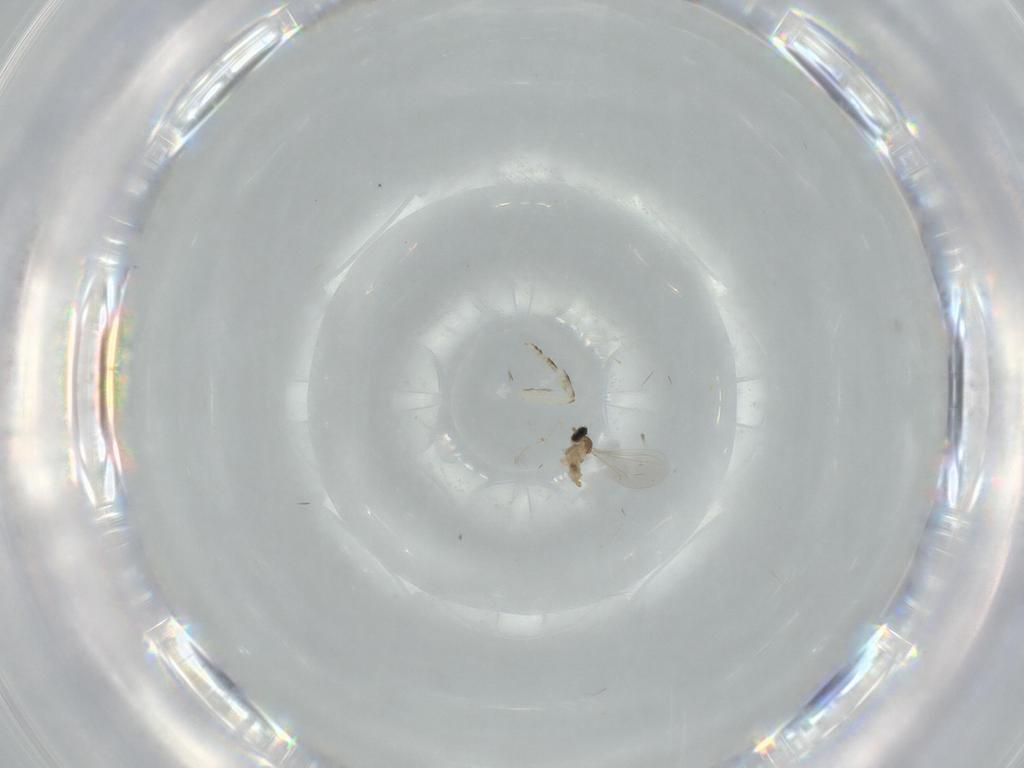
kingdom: Animalia
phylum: Arthropoda
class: Insecta
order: Diptera
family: Cecidomyiidae
